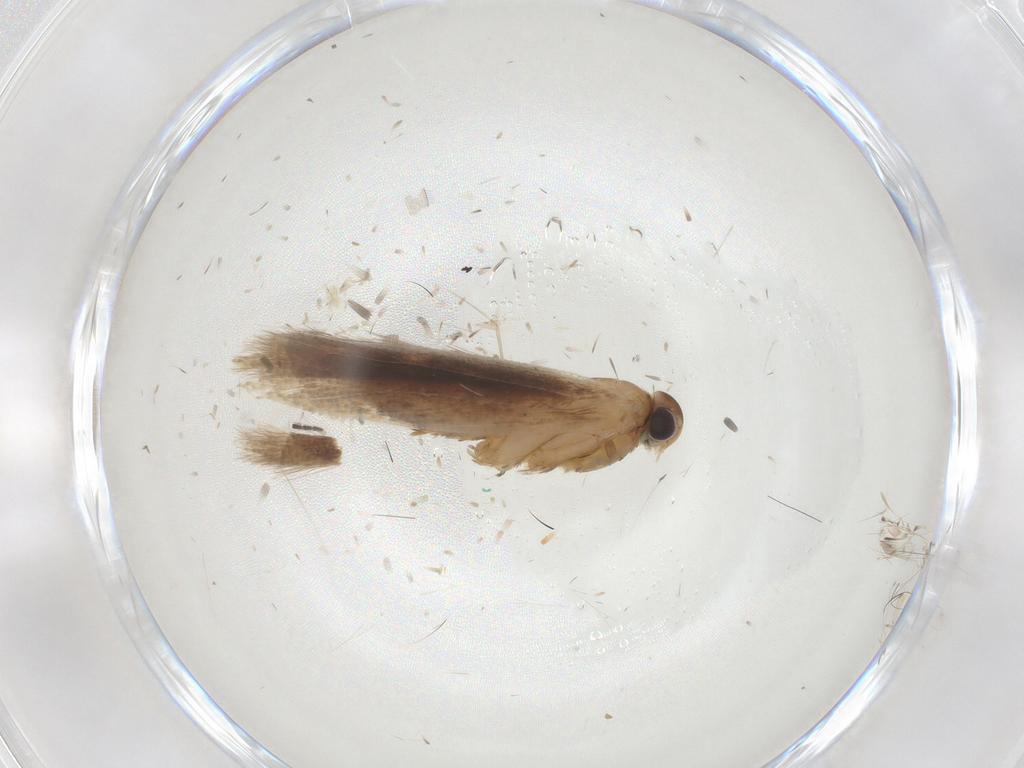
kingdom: Animalia
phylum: Arthropoda
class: Insecta
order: Lepidoptera
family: Gelechiidae
